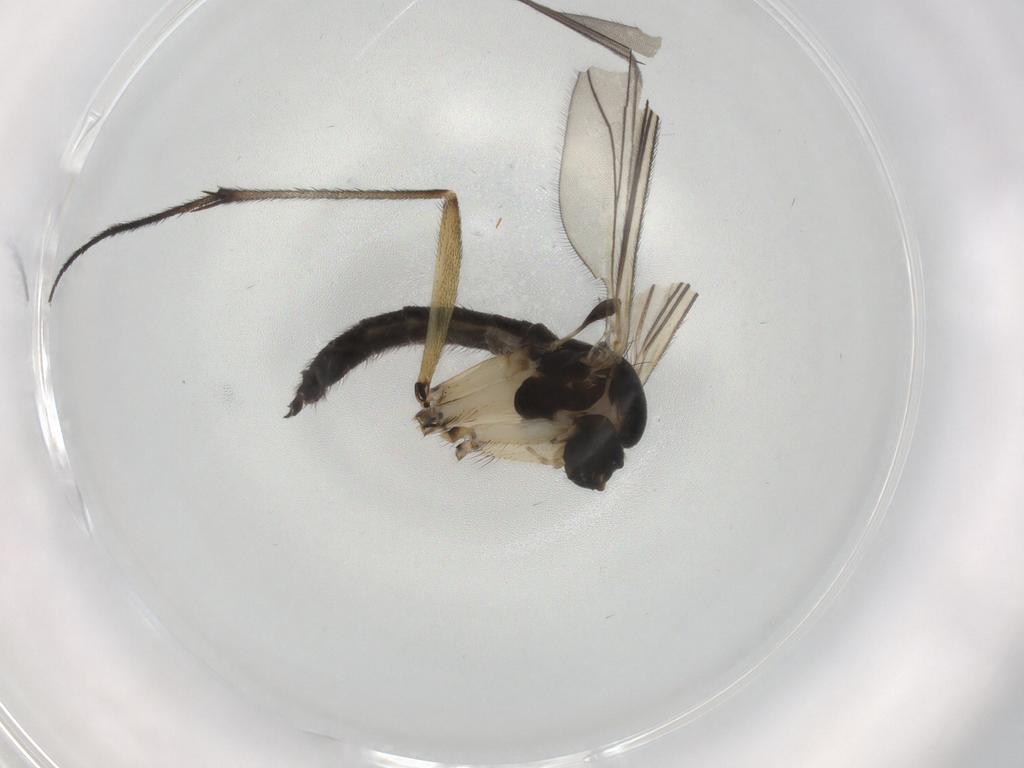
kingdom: Animalia
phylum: Arthropoda
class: Insecta
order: Diptera
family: Sciaridae
